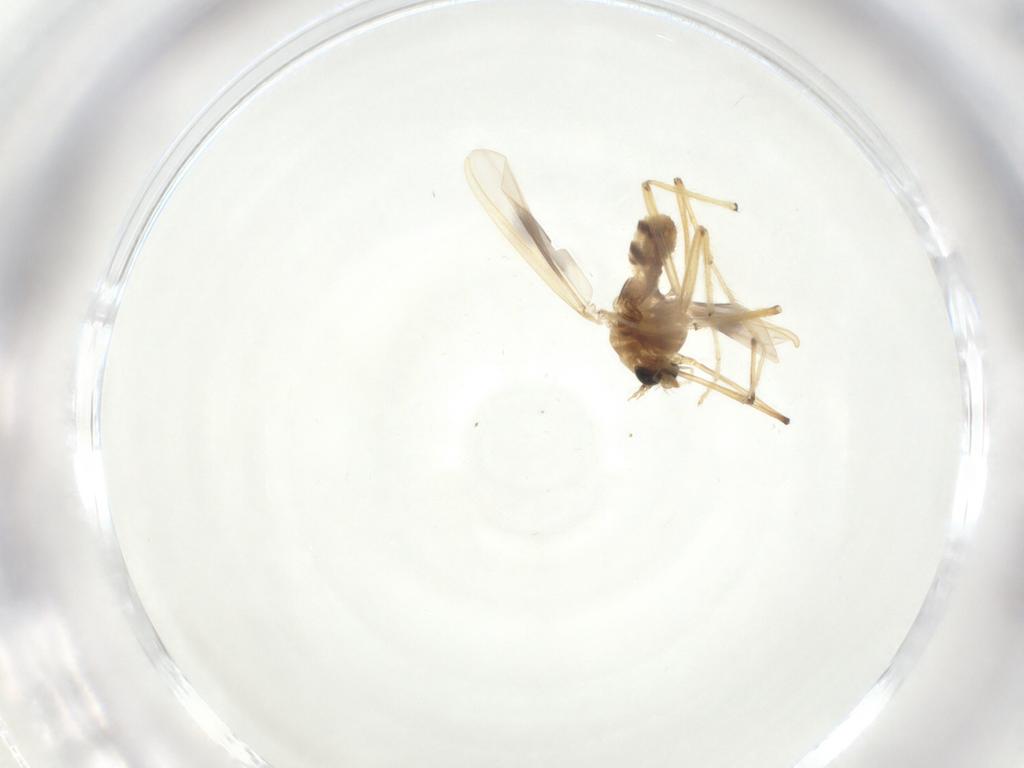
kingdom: Animalia
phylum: Arthropoda
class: Insecta
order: Diptera
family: Chironomidae
